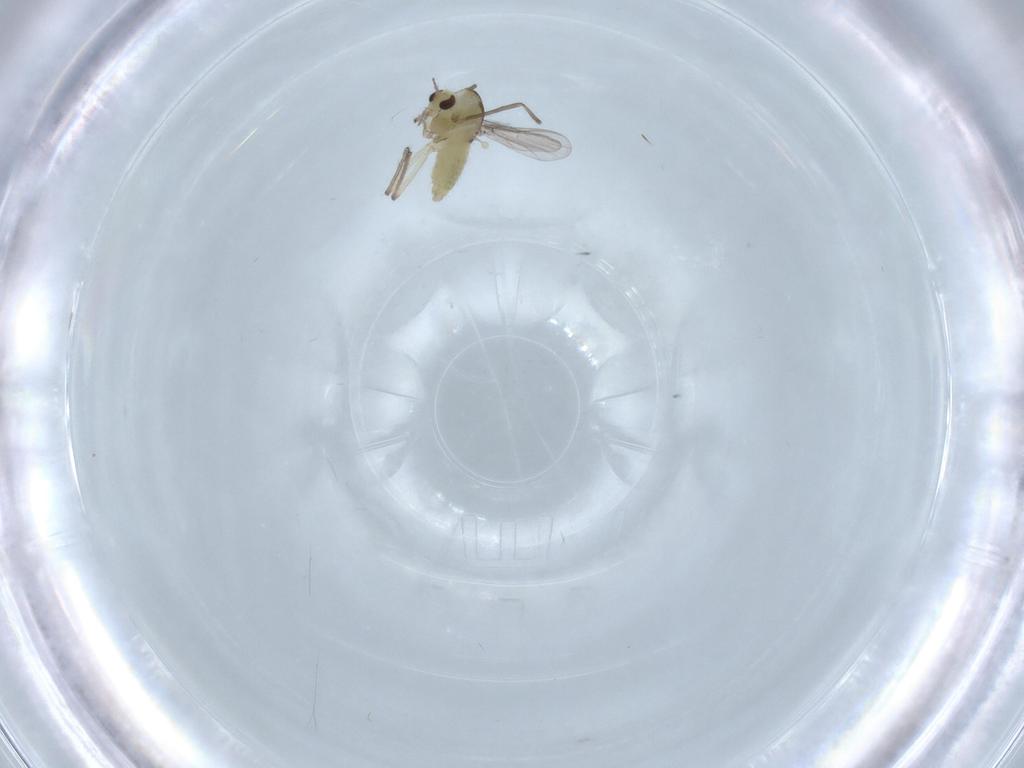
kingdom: Animalia
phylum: Arthropoda
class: Insecta
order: Diptera
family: Chironomidae
